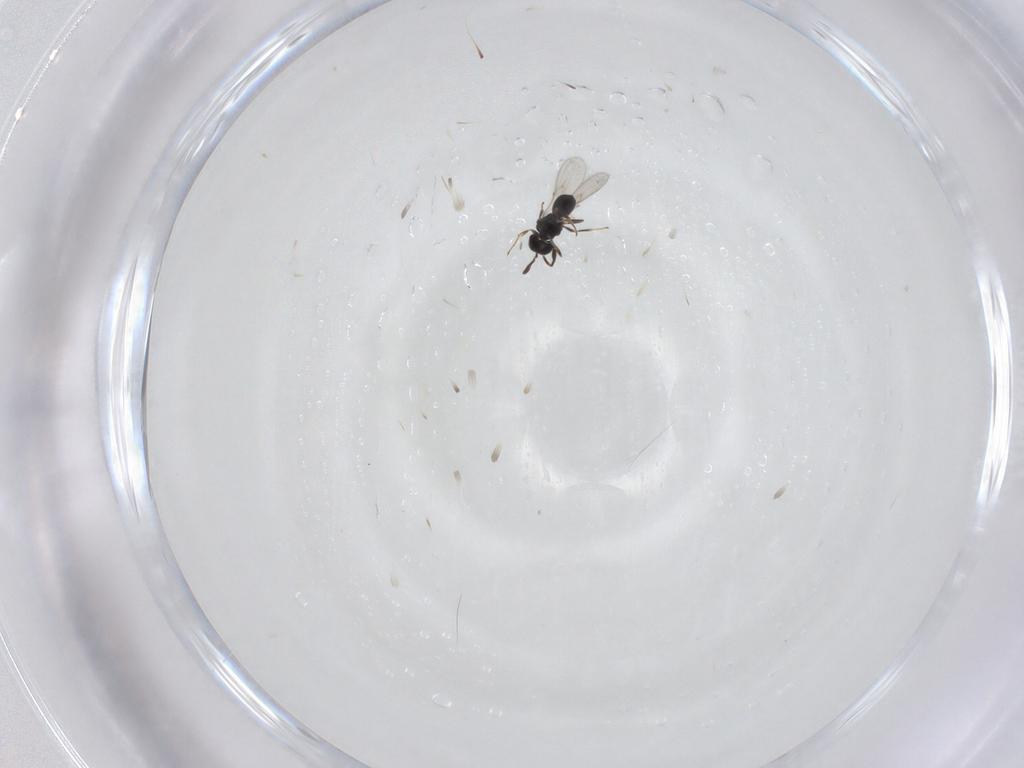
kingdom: Animalia
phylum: Arthropoda
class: Insecta
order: Hymenoptera
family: Scelionidae
